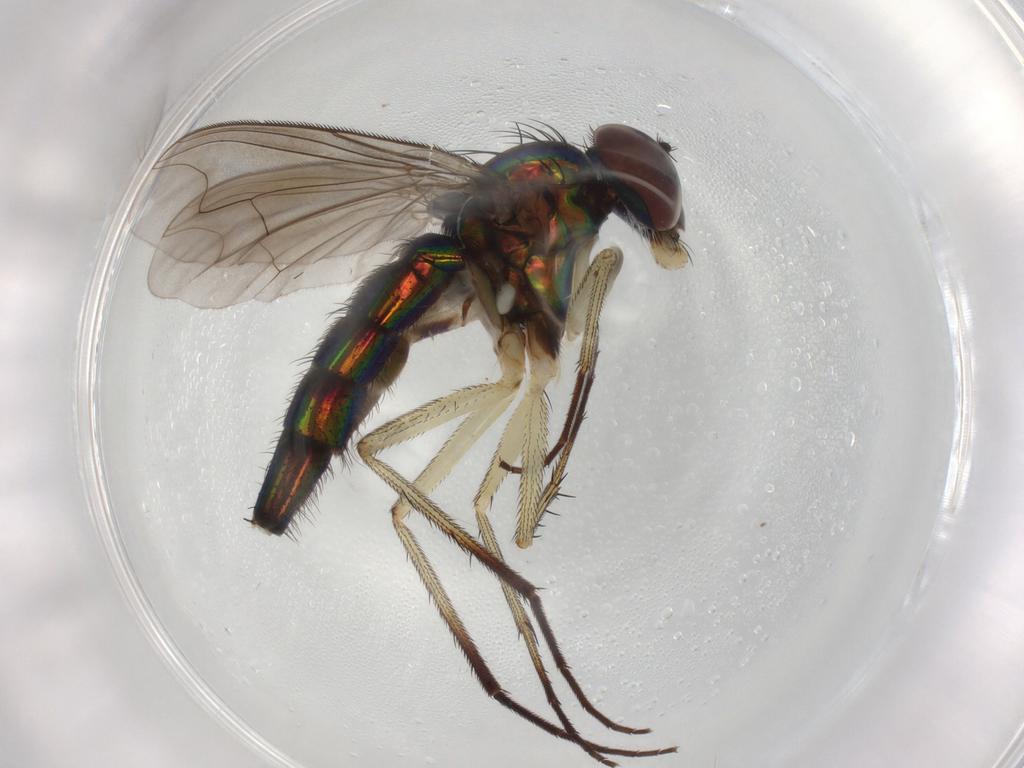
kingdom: Animalia
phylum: Arthropoda
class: Insecta
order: Diptera
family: Dolichopodidae
